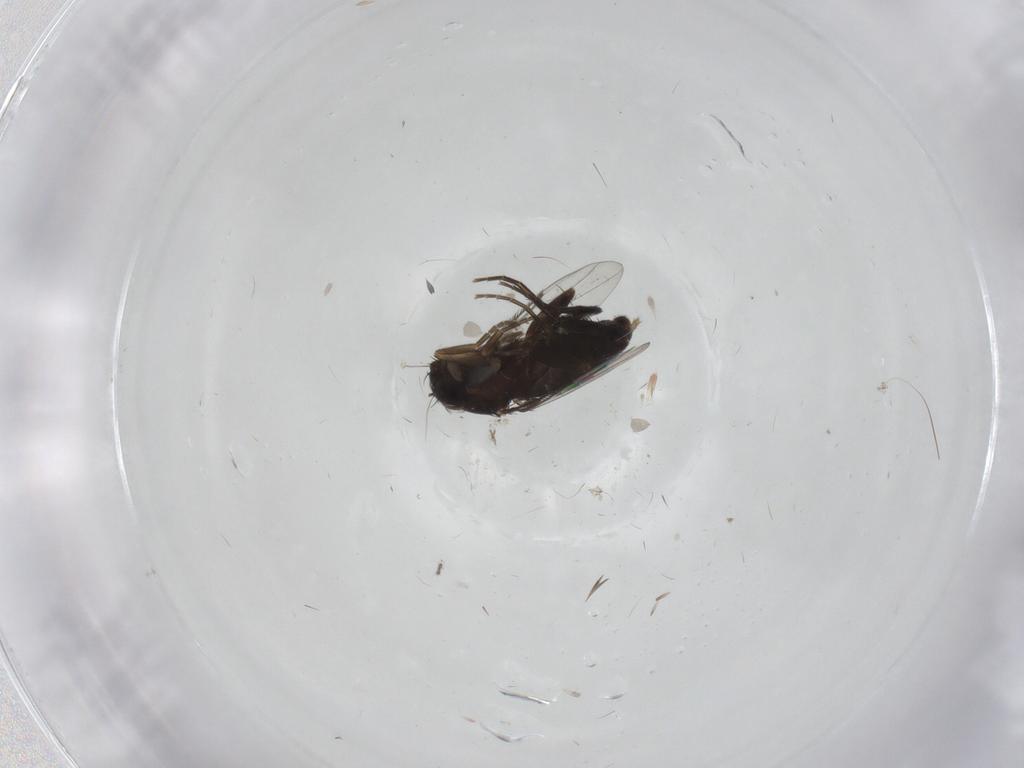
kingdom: Animalia
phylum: Arthropoda
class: Insecta
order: Diptera
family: Phoridae
